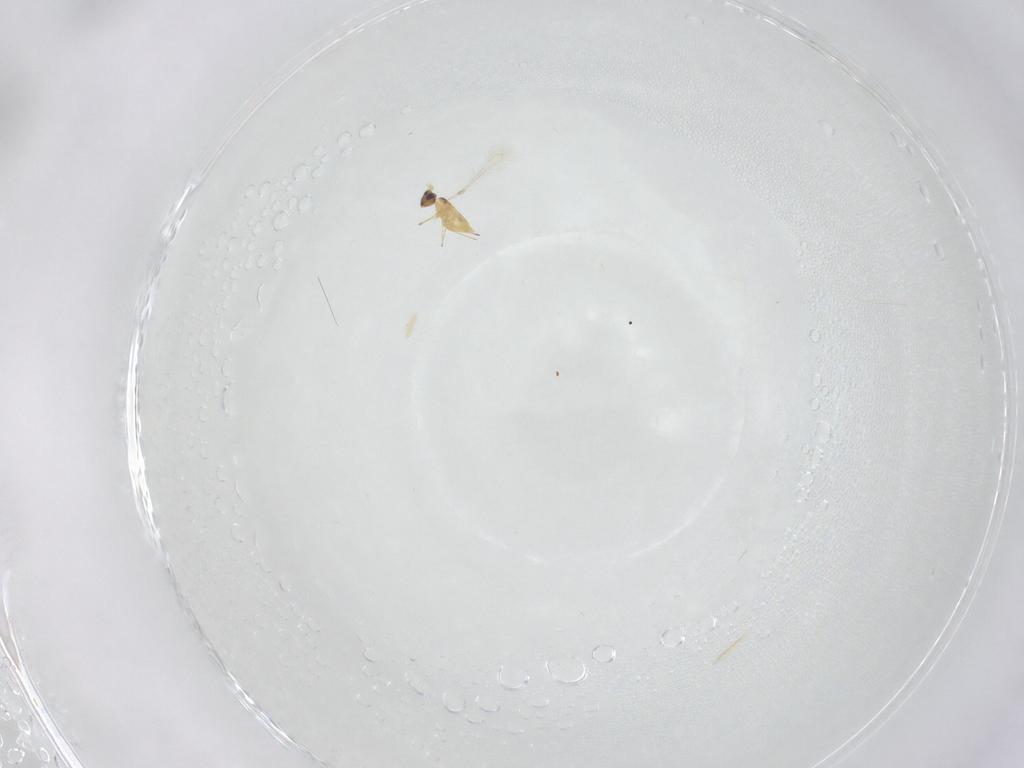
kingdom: Animalia
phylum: Arthropoda
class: Insecta
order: Hymenoptera
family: Mymaridae
